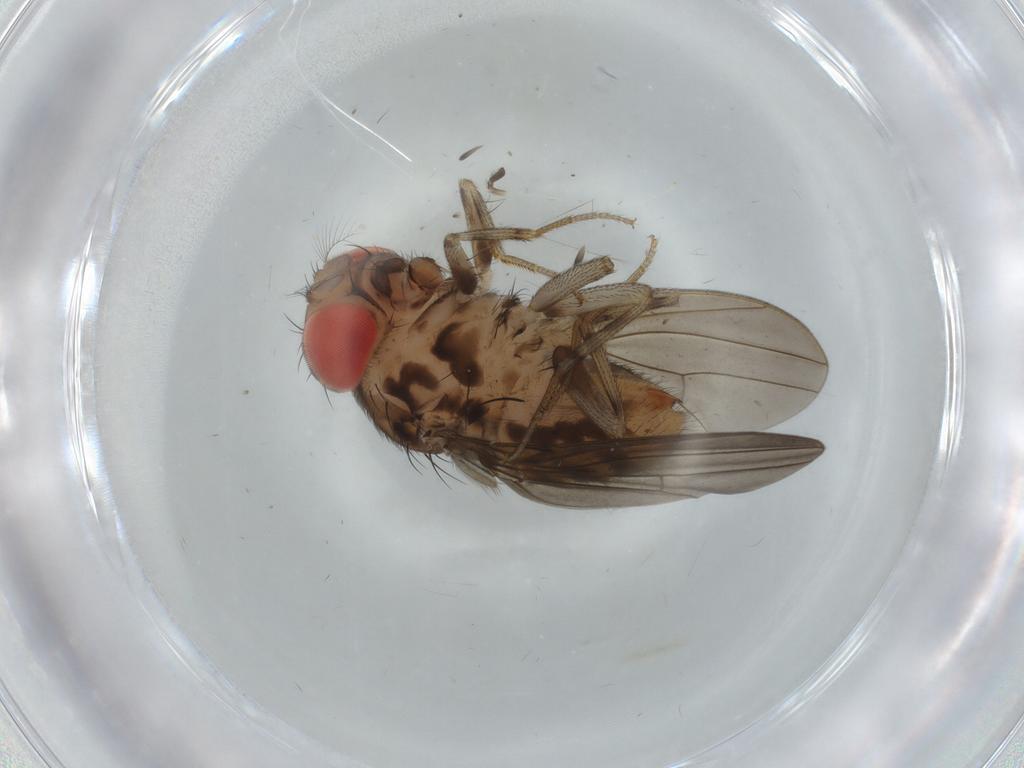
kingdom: Animalia
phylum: Arthropoda
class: Insecta
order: Diptera
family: Drosophilidae
